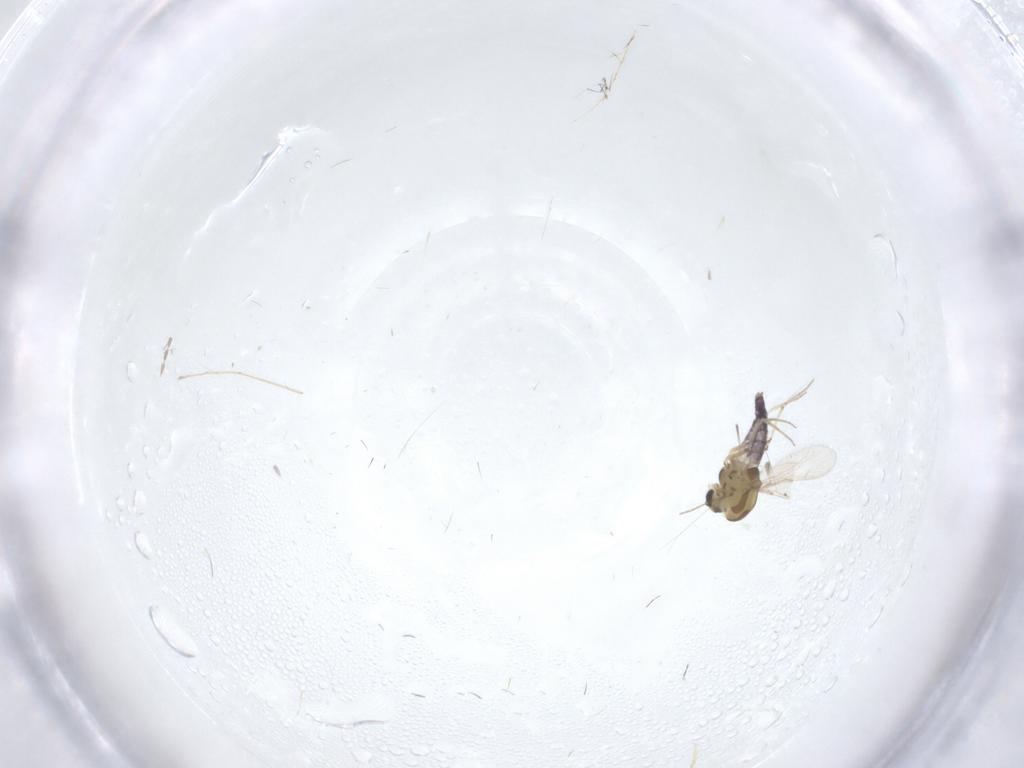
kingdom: Animalia
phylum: Arthropoda
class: Insecta
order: Diptera
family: Cecidomyiidae
